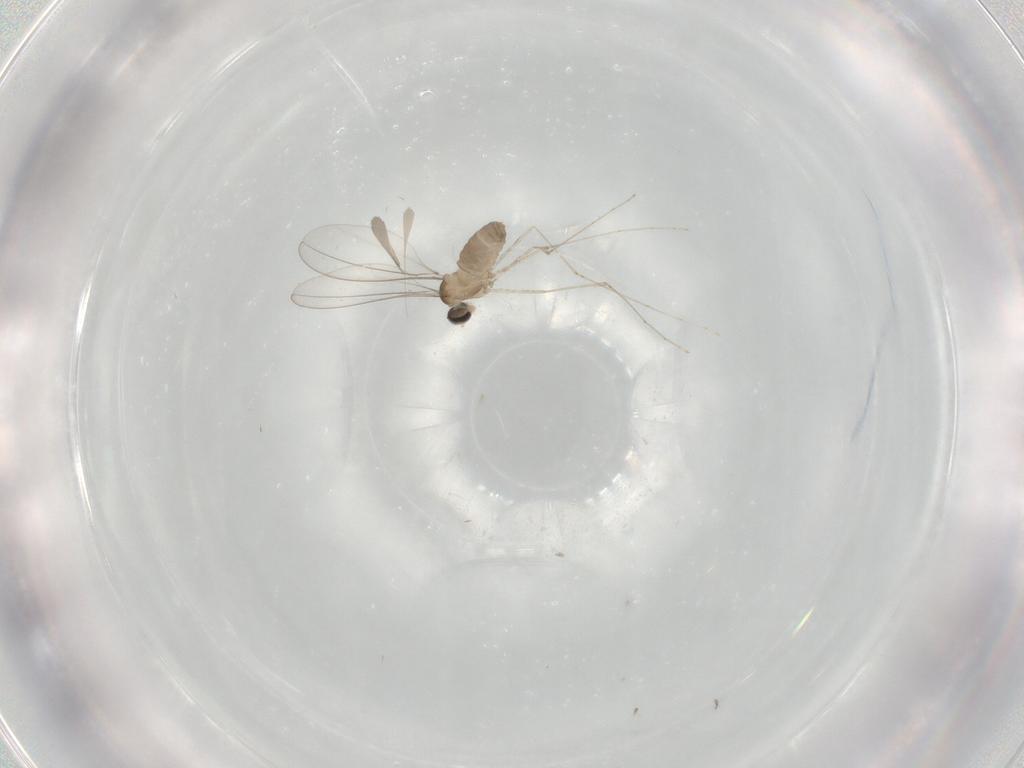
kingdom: Animalia
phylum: Arthropoda
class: Insecta
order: Diptera
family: Cecidomyiidae
